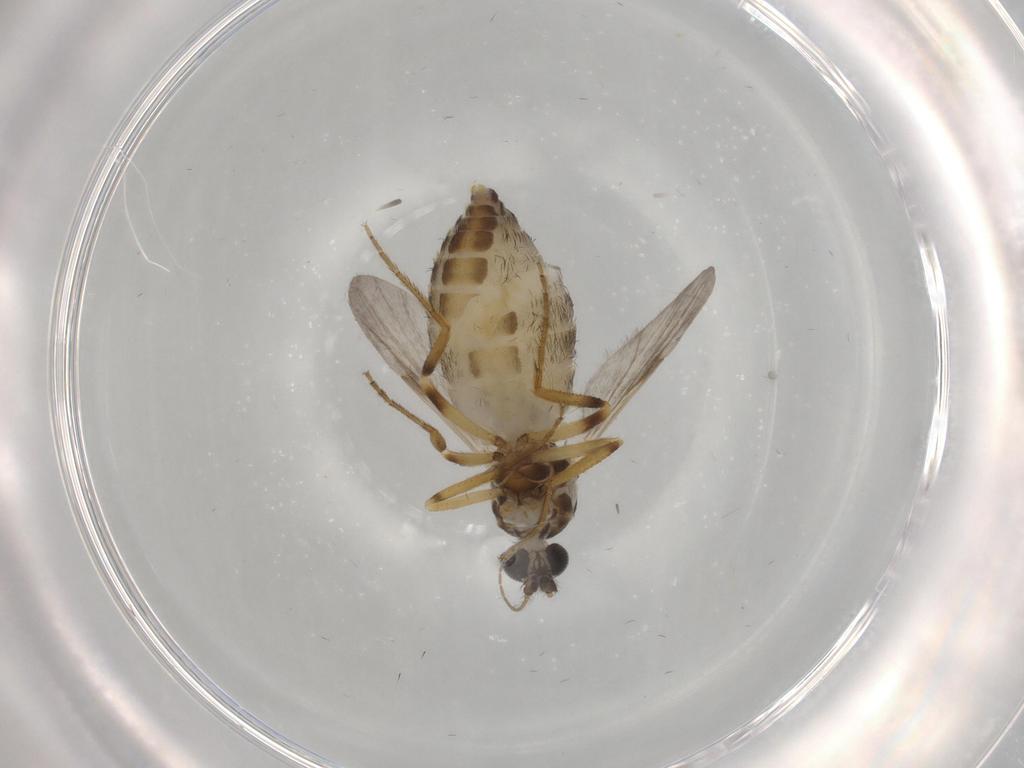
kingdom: Animalia
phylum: Arthropoda
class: Insecta
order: Diptera
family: Ceratopogonidae
